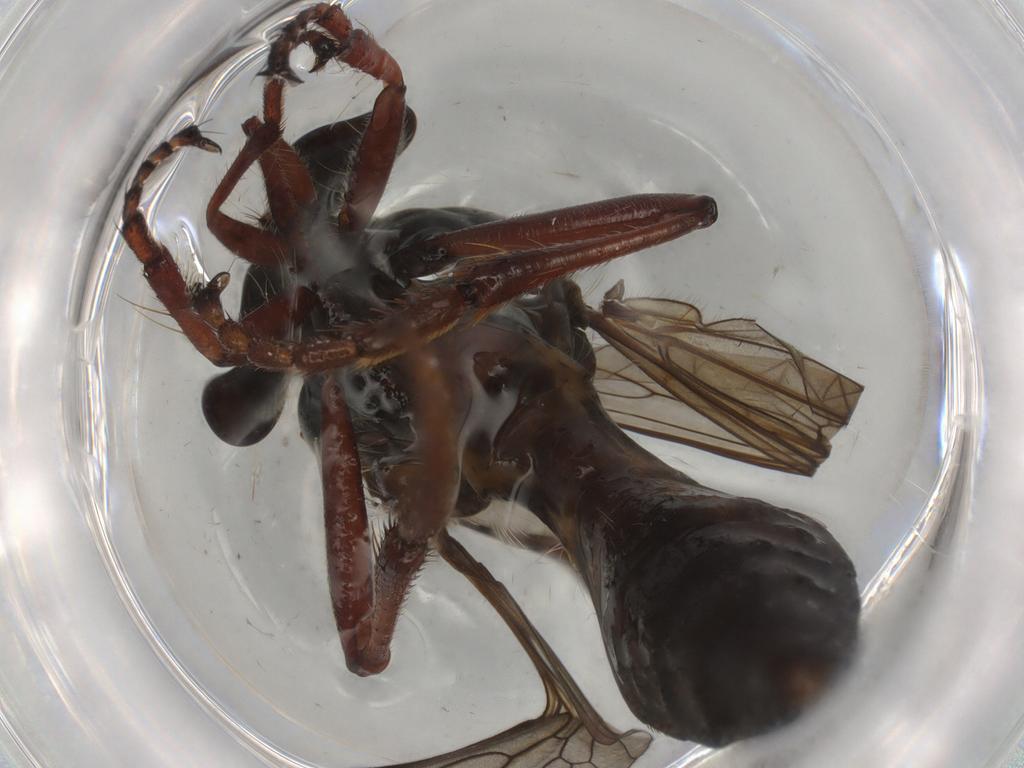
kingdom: Animalia
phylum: Arthropoda
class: Insecta
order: Diptera
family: Asilidae
